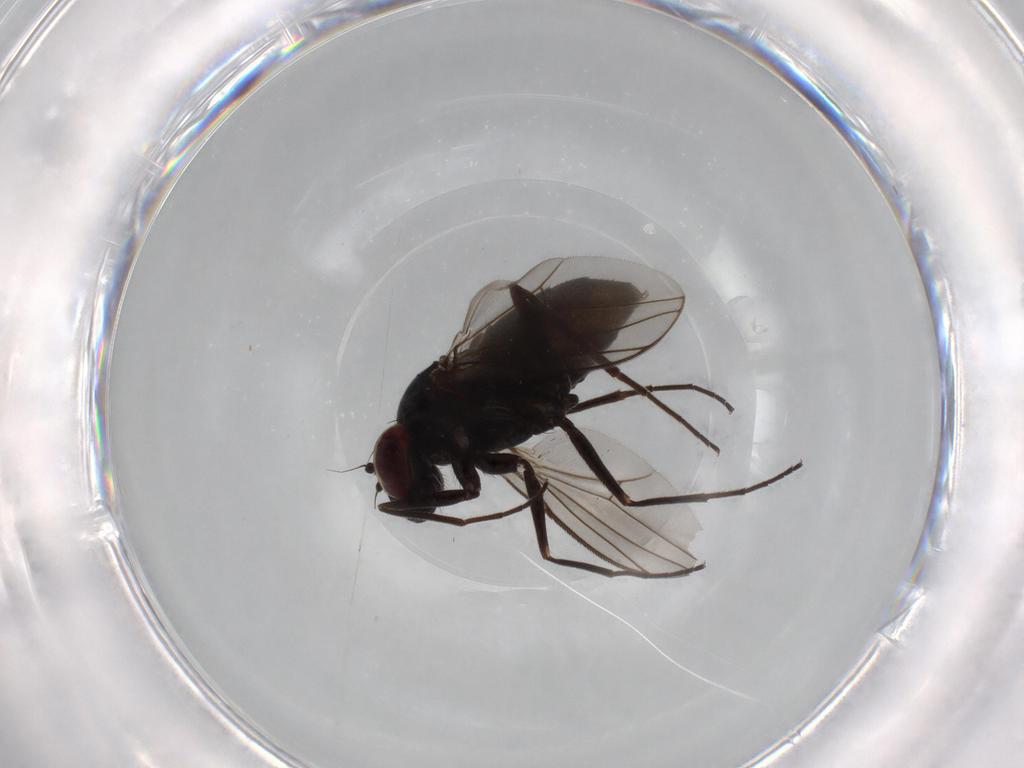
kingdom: Animalia
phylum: Arthropoda
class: Insecta
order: Diptera
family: Dolichopodidae
